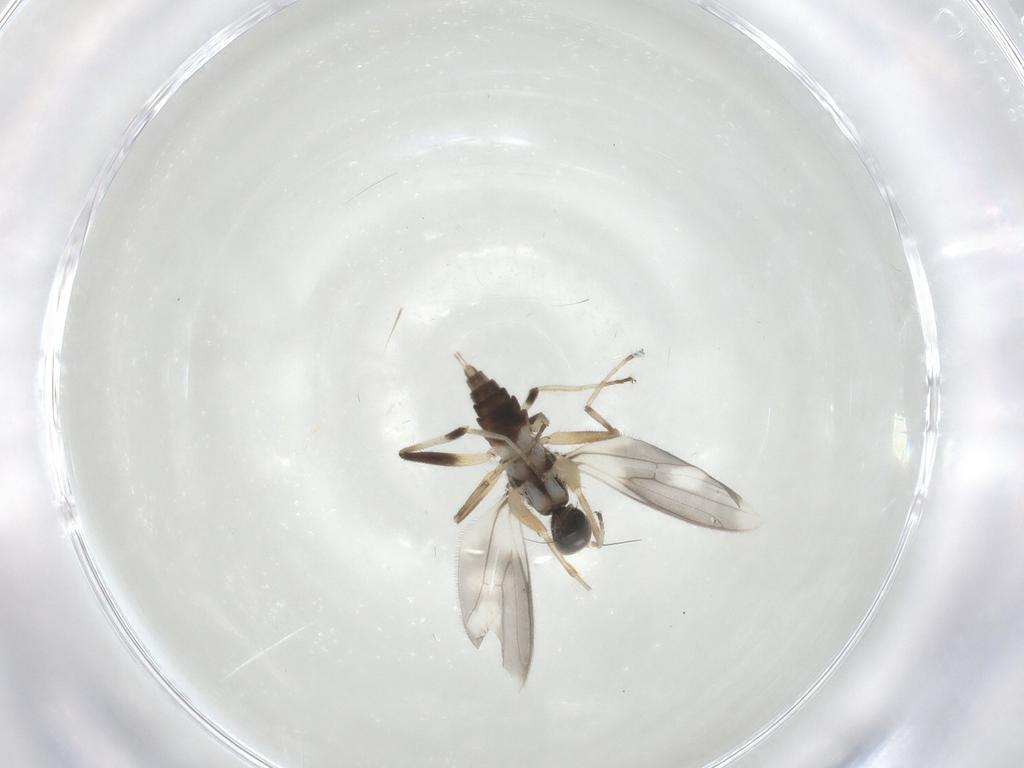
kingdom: Animalia
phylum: Arthropoda
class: Insecta
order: Diptera
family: Hybotidae
